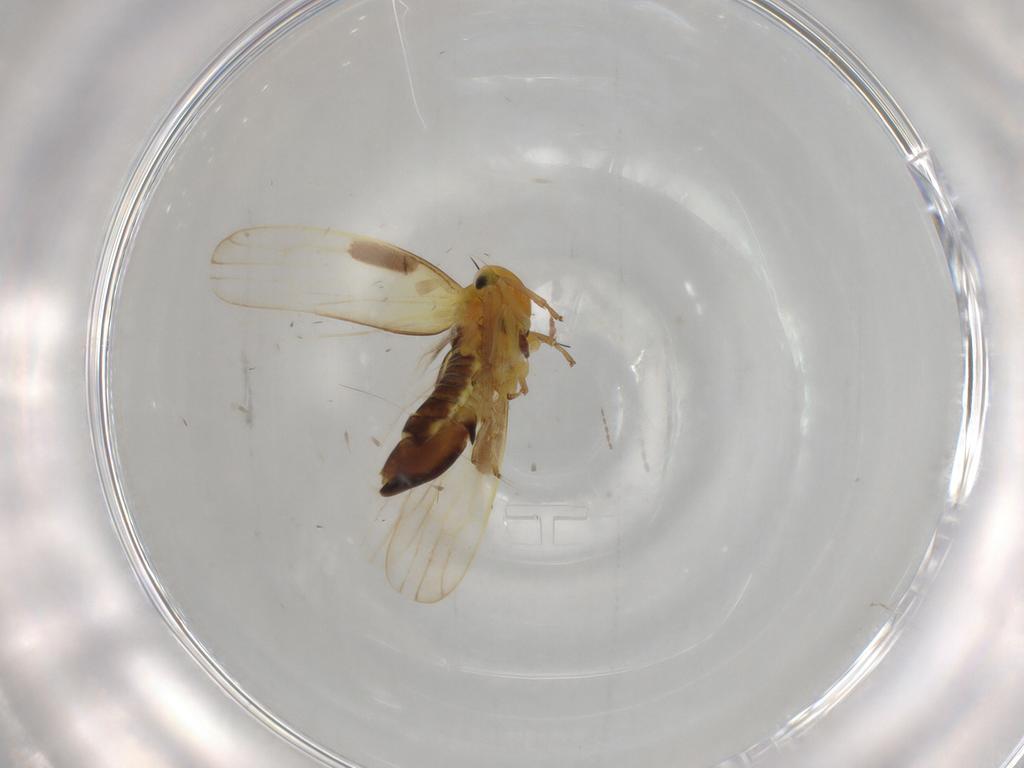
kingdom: Animalia
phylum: Arthropoda
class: Insecta
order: Hemiptera
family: Cicadellidae
